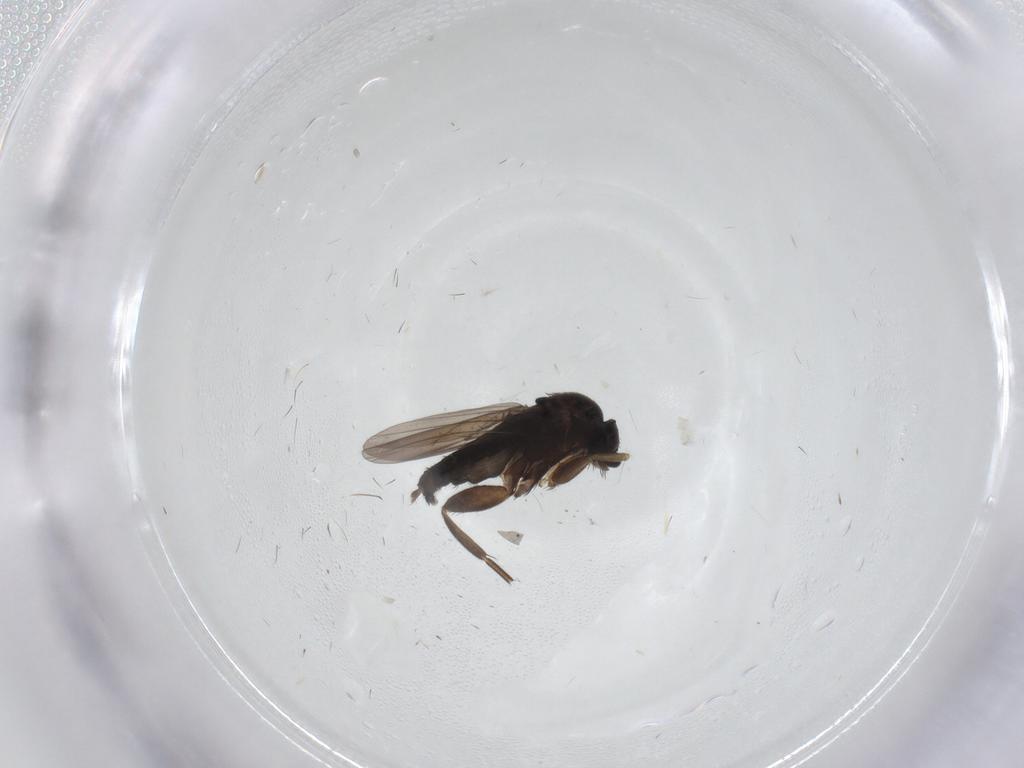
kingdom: Animalia
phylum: Arthropoda
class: Insecta
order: Diptera
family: Phoridae
